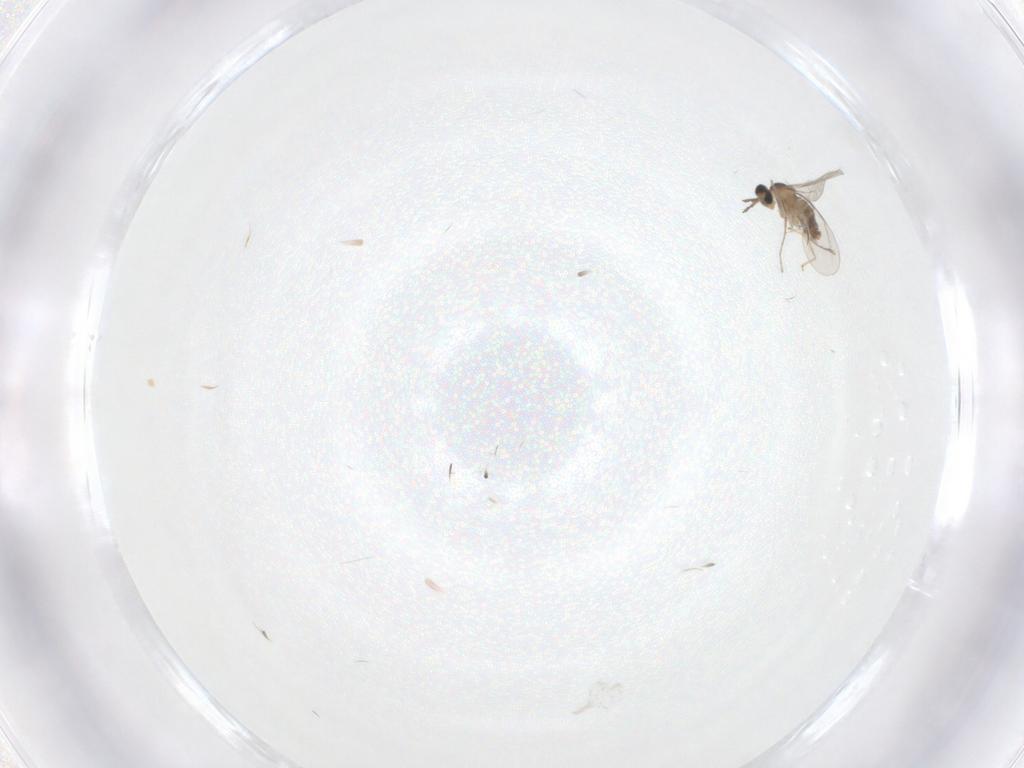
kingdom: Animalia
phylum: Arthropoda
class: Insecta
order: Diptera
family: Cecidomyiidae
